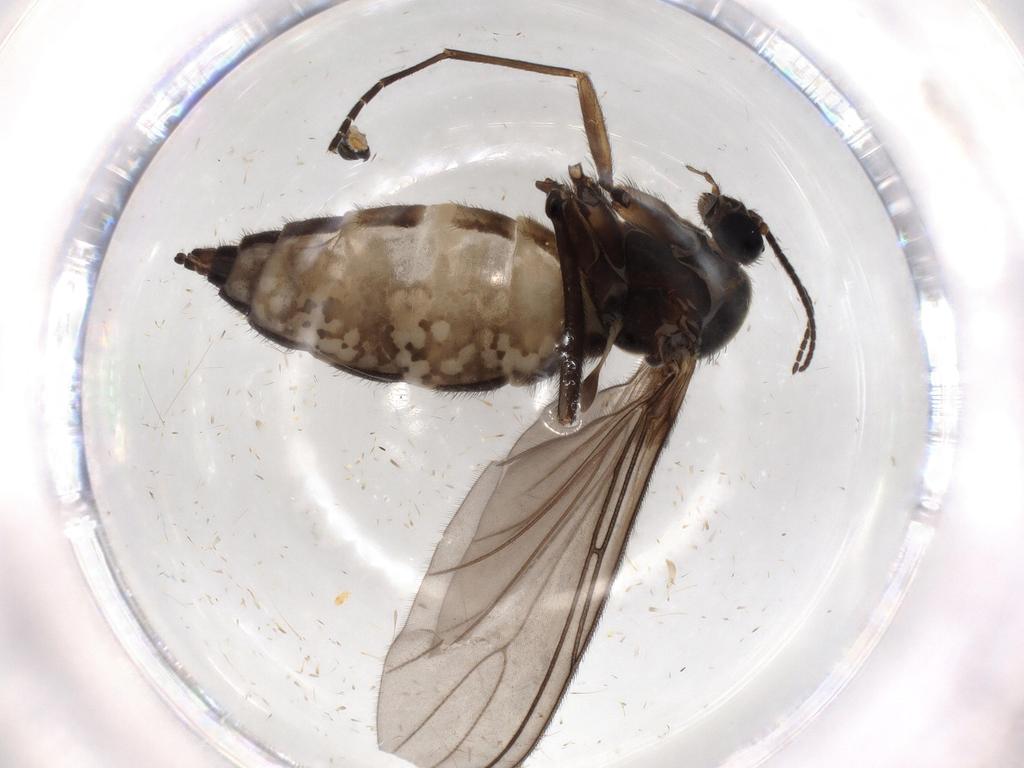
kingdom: Animalia
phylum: Arthropoda
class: Insecta
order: Diptera
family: Sciaridae
